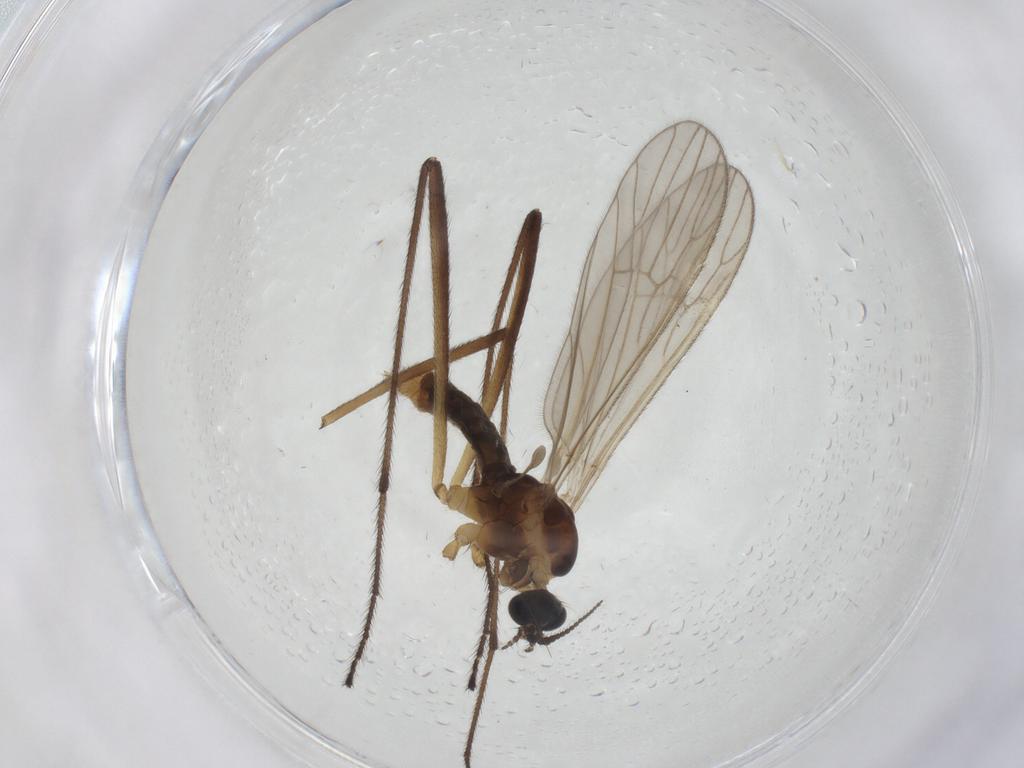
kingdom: Animalia
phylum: Arthropoda
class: Insecta
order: Diptera
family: Agromyzidae
